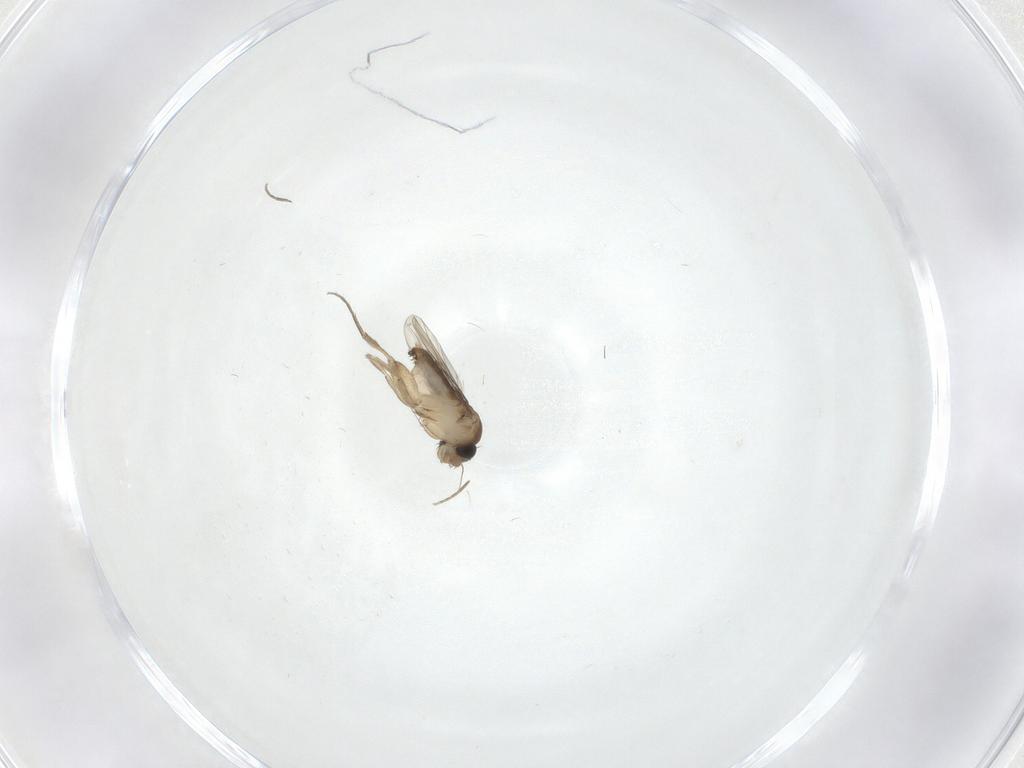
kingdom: Animalia
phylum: Arthropoda
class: Insecta
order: Diptera
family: Phoridae
